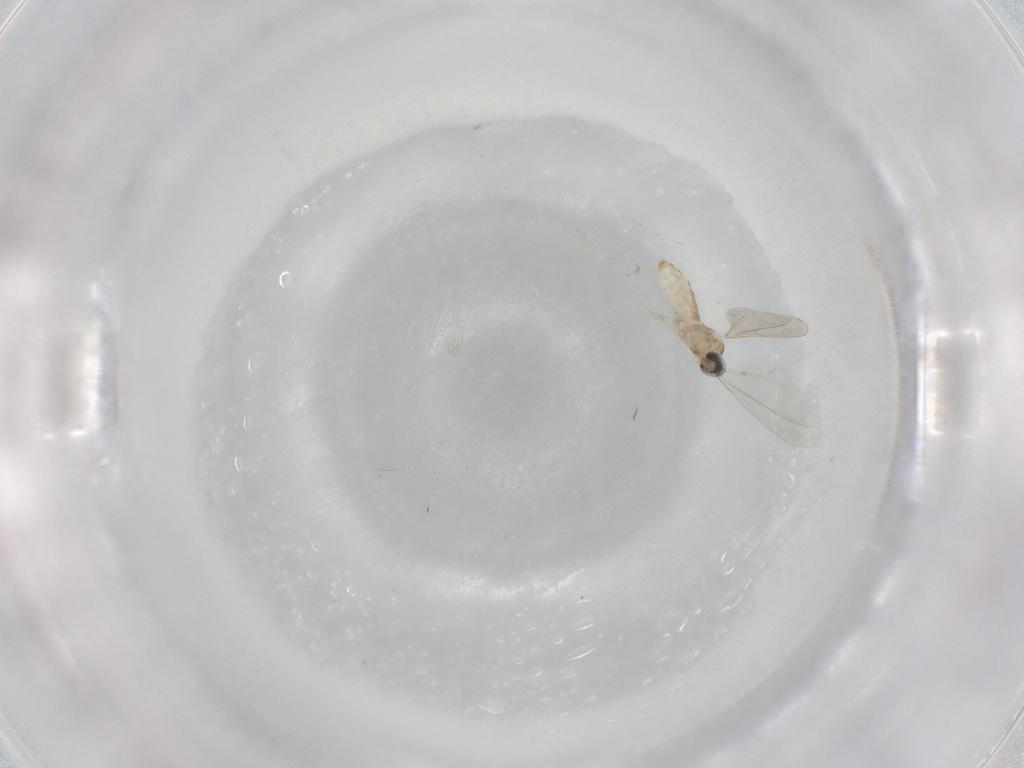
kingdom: Animalia
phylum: Arthropoda
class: Insecta
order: Diptera
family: Cecidomyiidae
